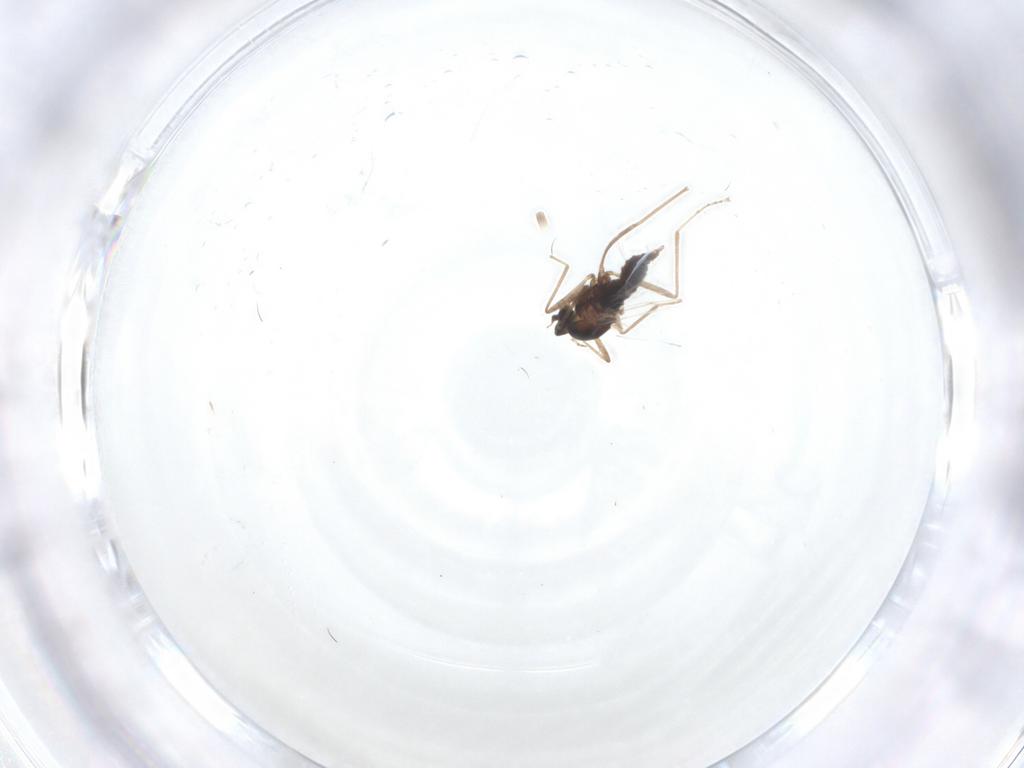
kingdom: Animalia
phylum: Arthropoda
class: Insecta
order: Diptera
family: Cecidomyiidae
